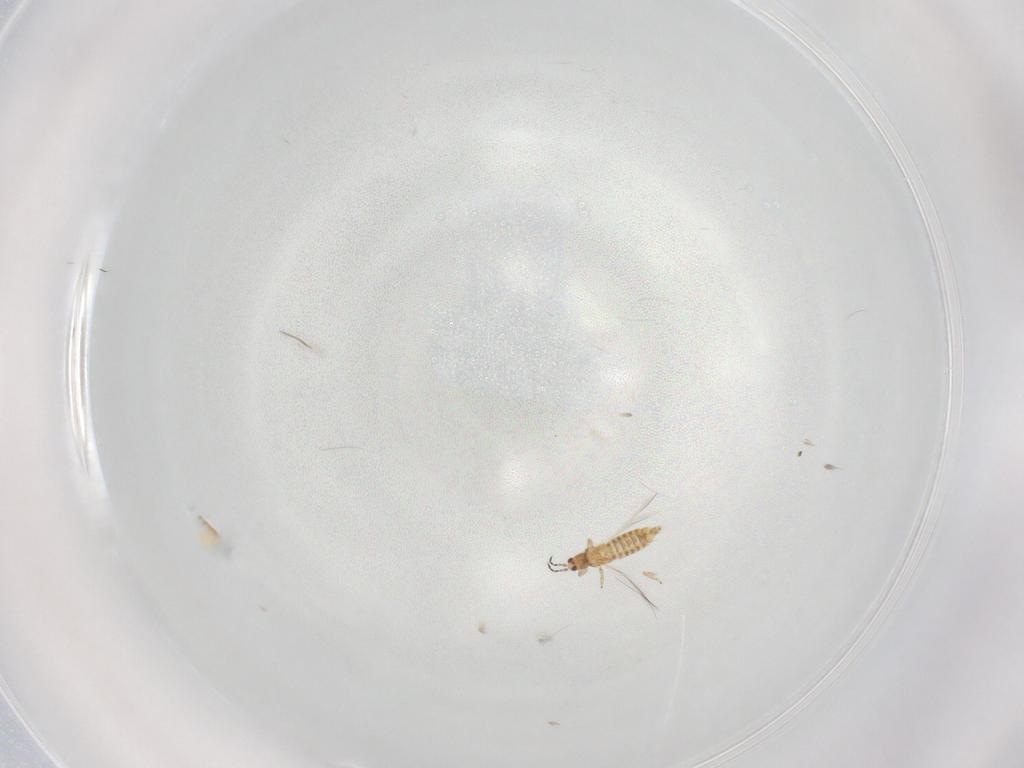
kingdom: Animalia
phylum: Arthropoda
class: Insecta
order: Thysanoptera
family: Thripidae
